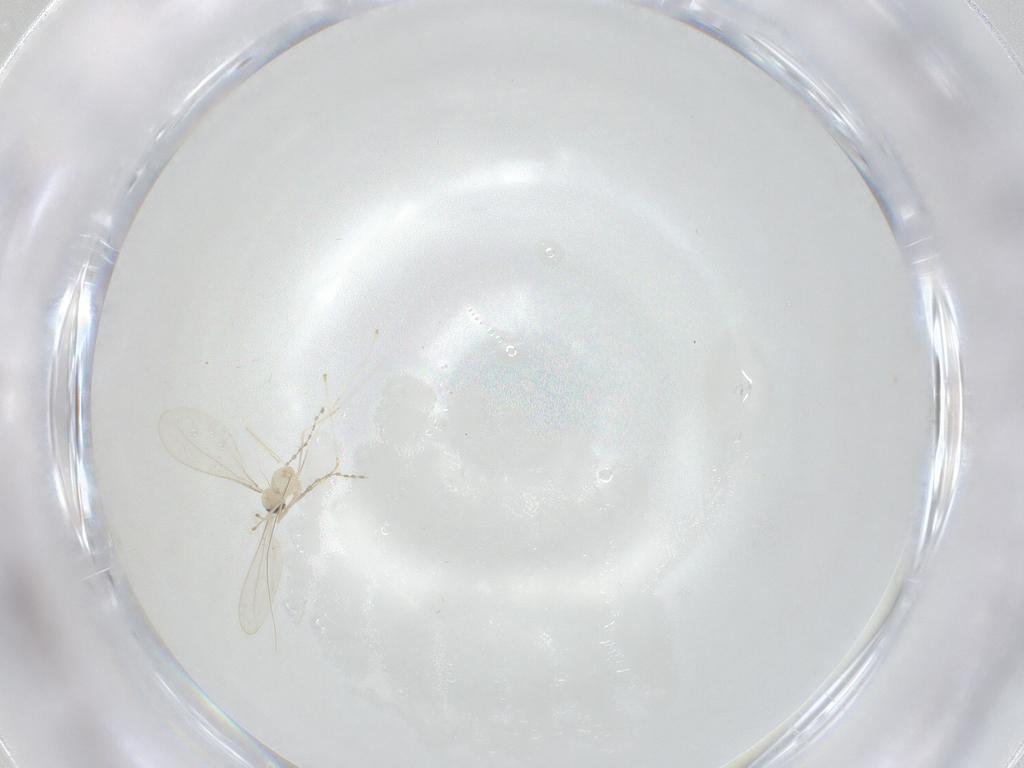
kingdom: Animalia
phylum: Arthropoda
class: Insecta
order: Diptera
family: Cecidomyiidae
